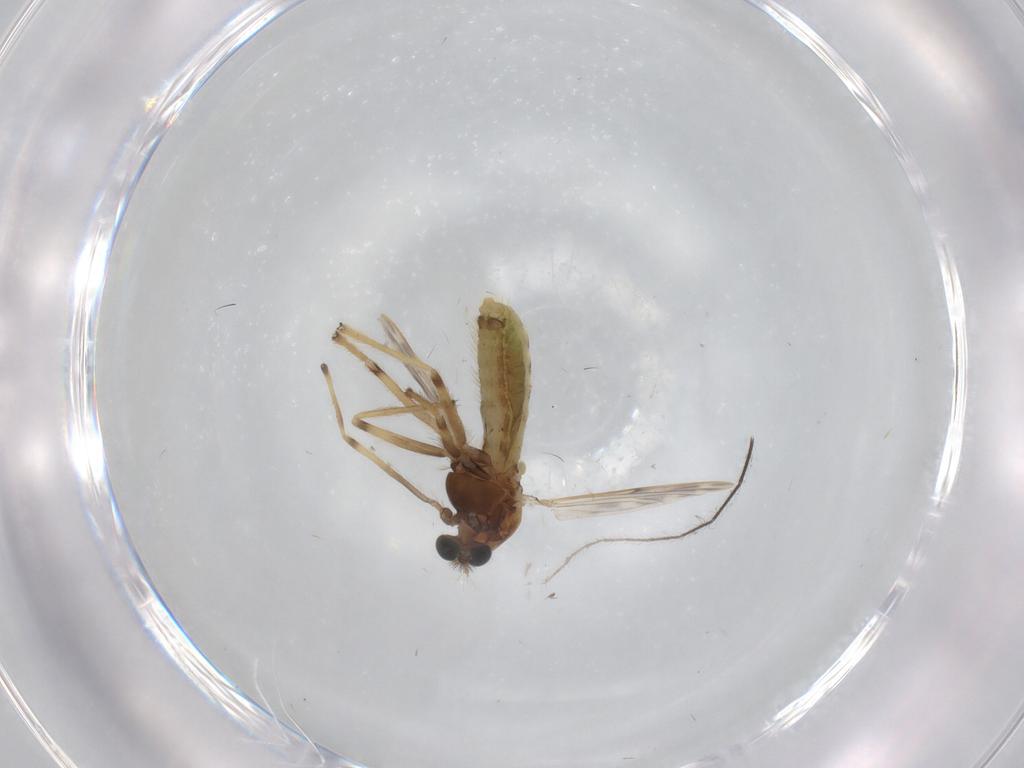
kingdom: Animalia
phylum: Arthropoda
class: Insecta
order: Diptera
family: Chironomidae
